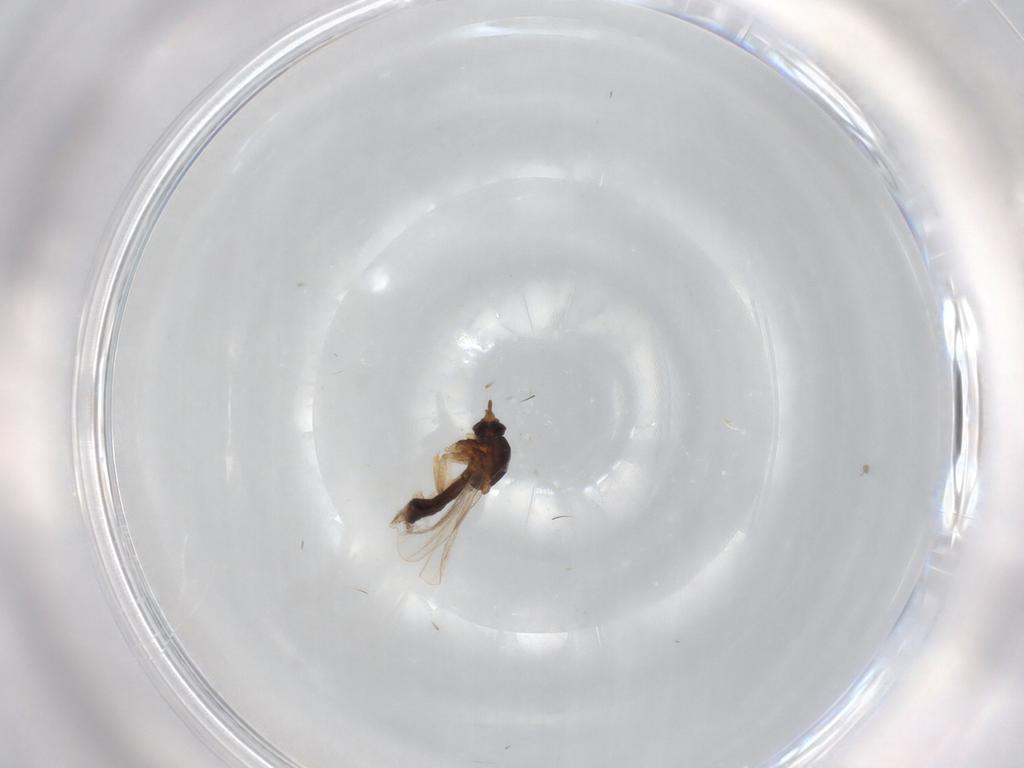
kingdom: Animalia
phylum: Arthropoda
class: Insecta
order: Diptera
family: Ceratopogonidae
